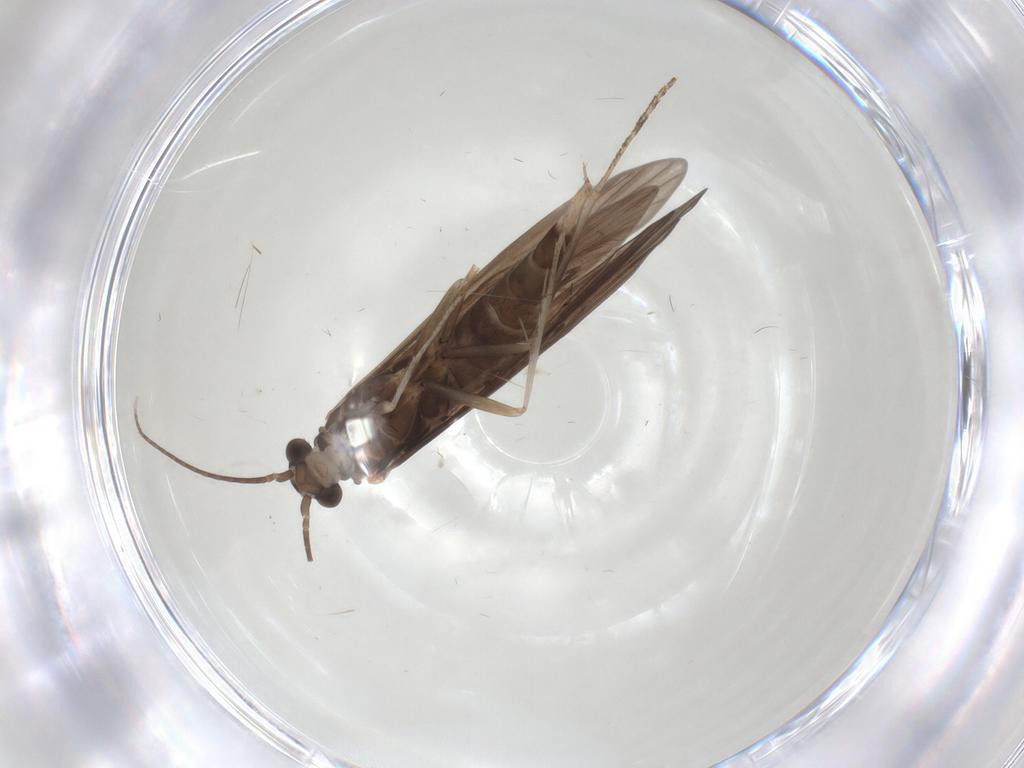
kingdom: Animalia
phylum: Arthropoda
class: Insecta
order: Trichoptera
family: Xiphocentronidae
